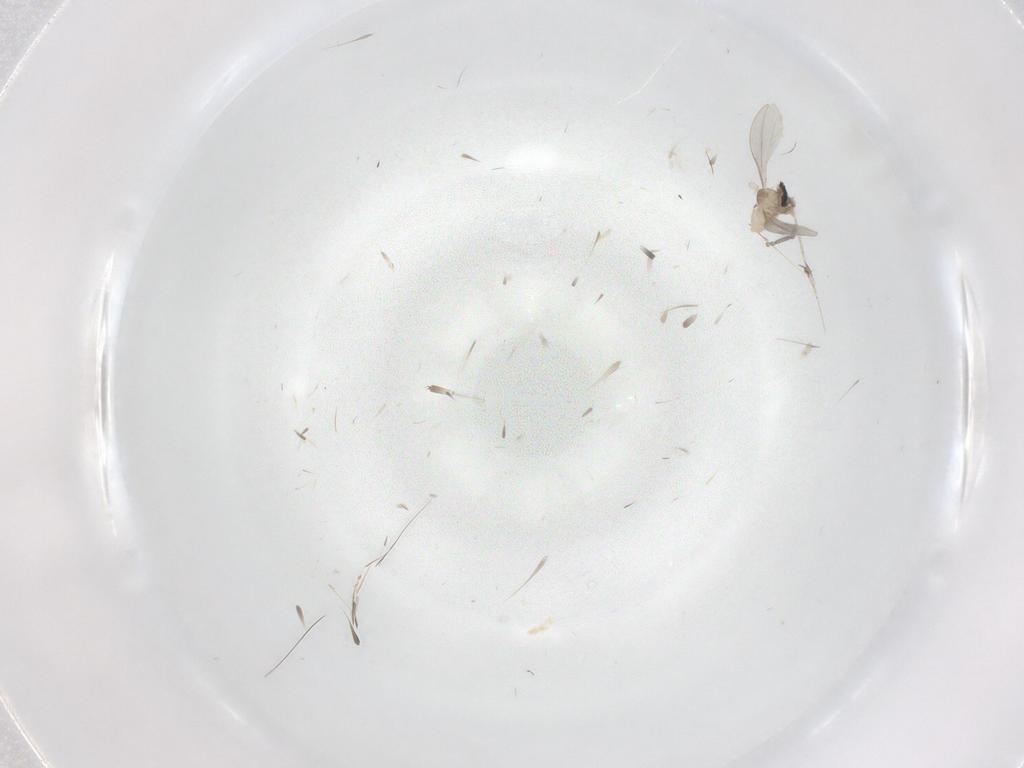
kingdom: Animalia
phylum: Arthropoda
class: Insecta
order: Diptera
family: Cecidomyiidae
